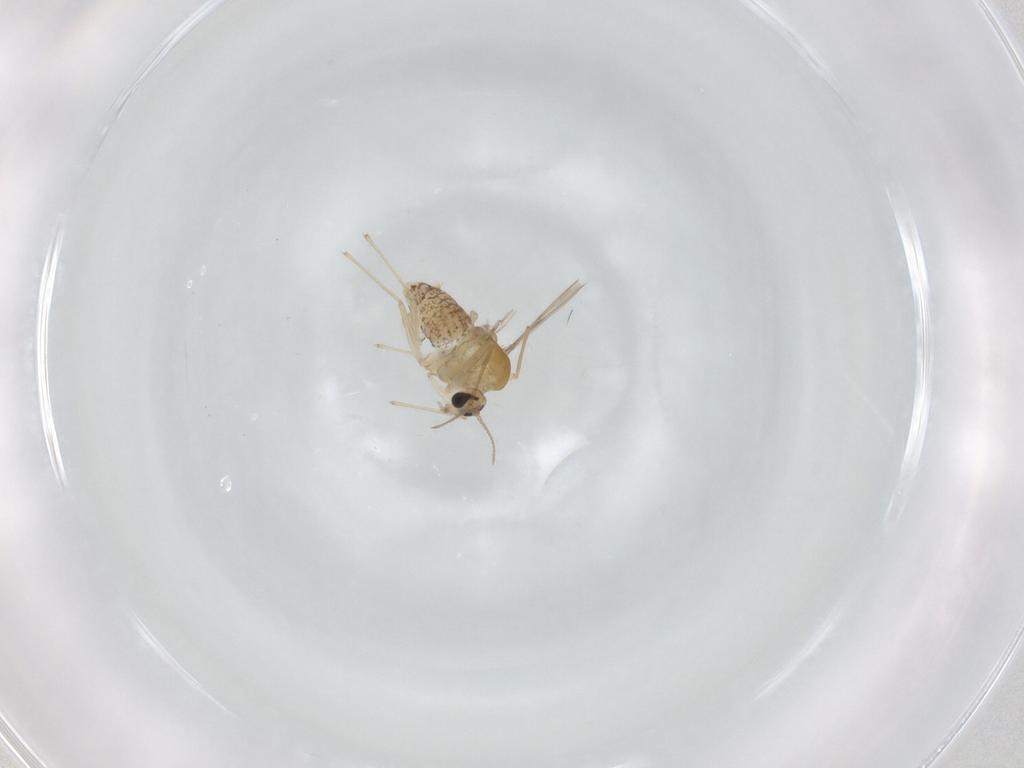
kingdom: Animalia
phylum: Arthropoda
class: Insecta
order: Diptera
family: Chironomidae
